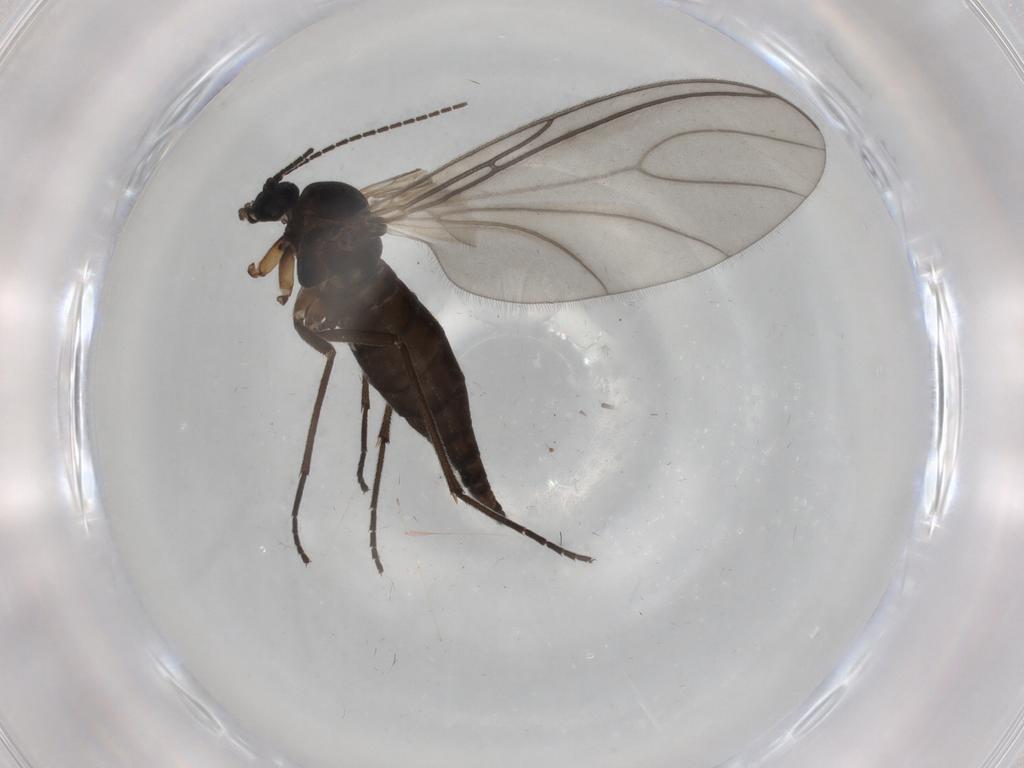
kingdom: Animalia
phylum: Arthropoda
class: Insecta
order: Diptera
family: Sciaridae
